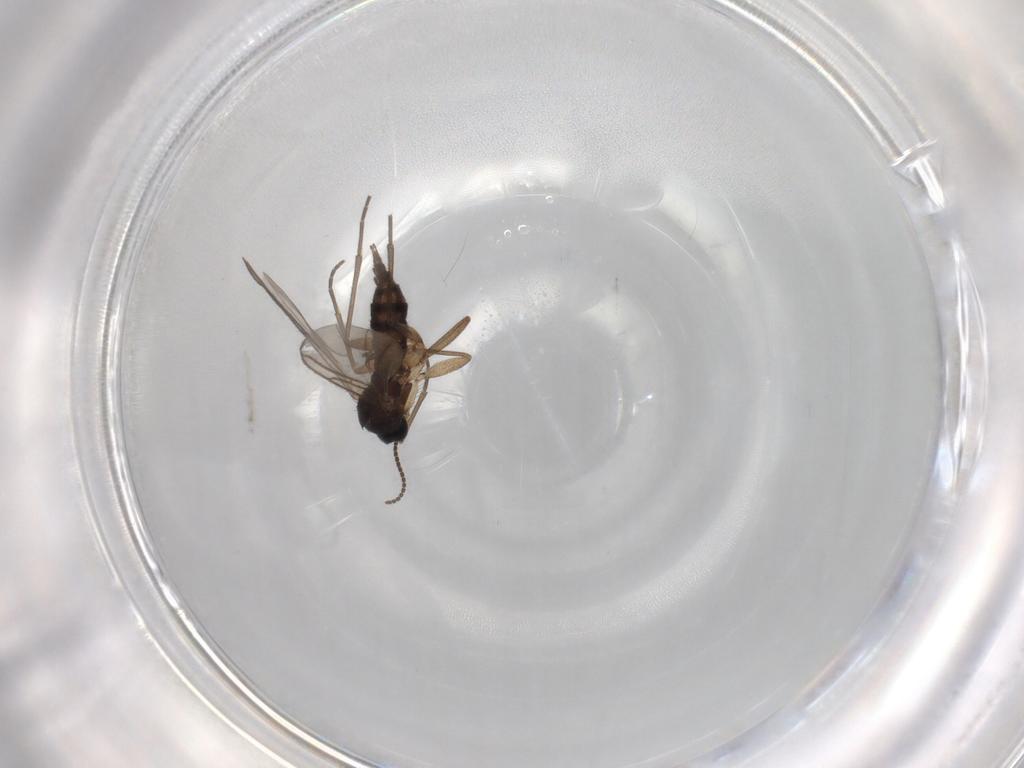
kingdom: Animalia
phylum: Arthropoda
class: Insecta
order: Diptera
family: Sciaridae
